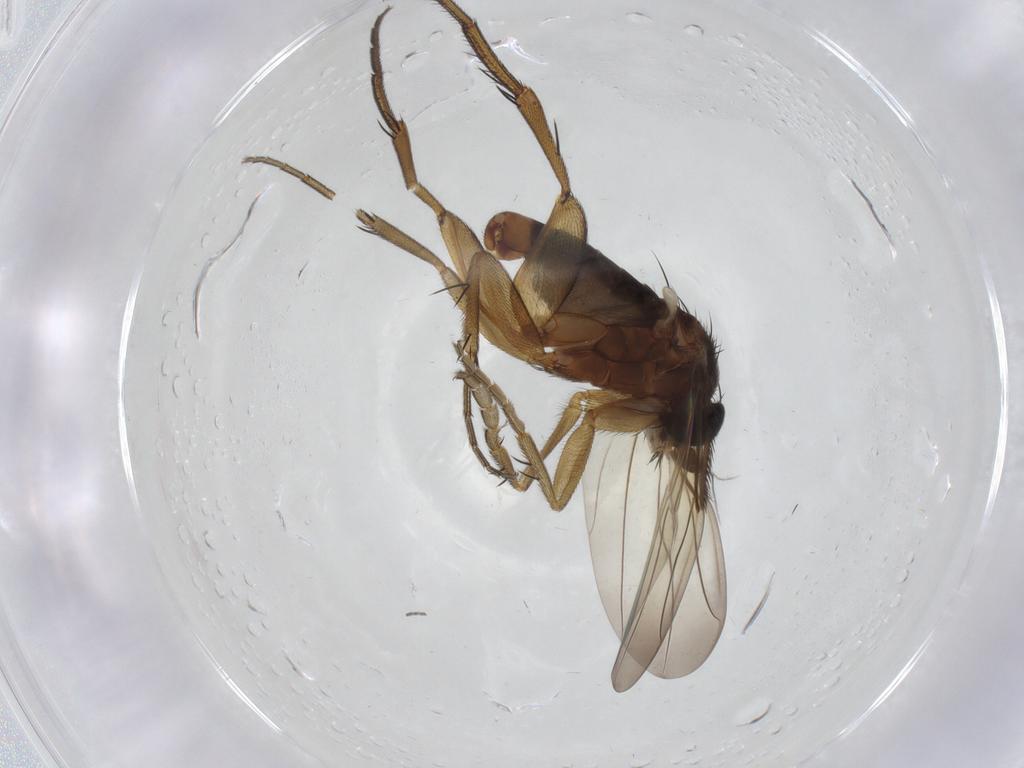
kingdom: Animalia
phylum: Arthropoda
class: Insecta
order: Diptera
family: Phoridae
